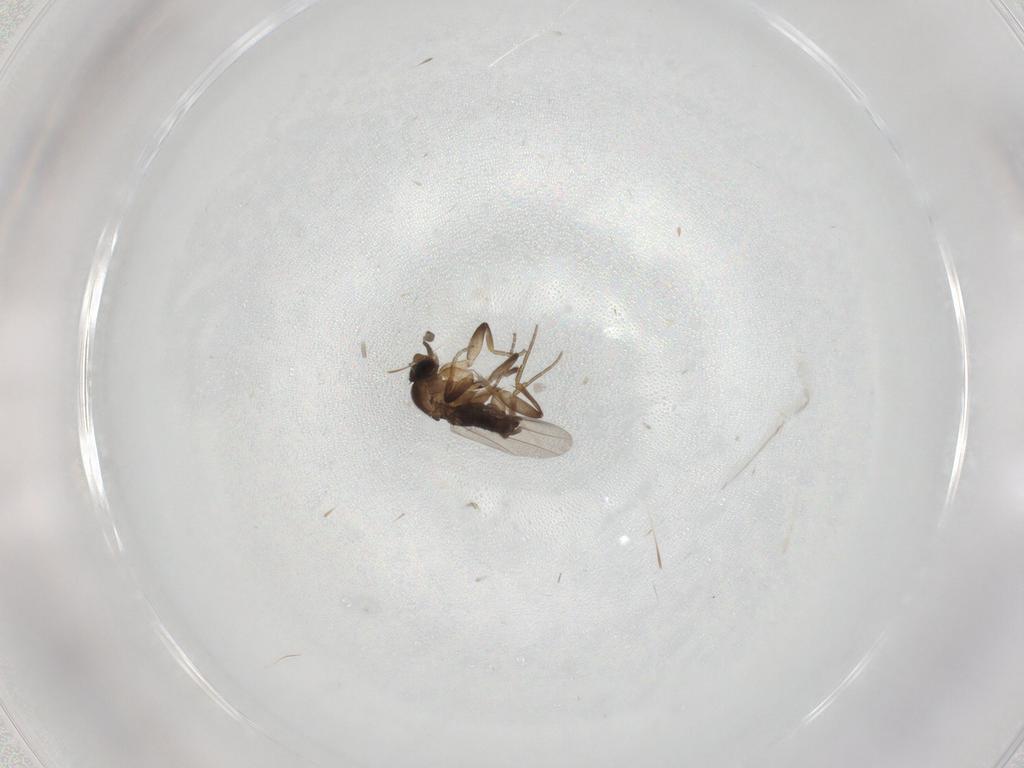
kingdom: Animalia
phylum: Arthropoda
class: Insecta
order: Diptera
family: Phoridae
